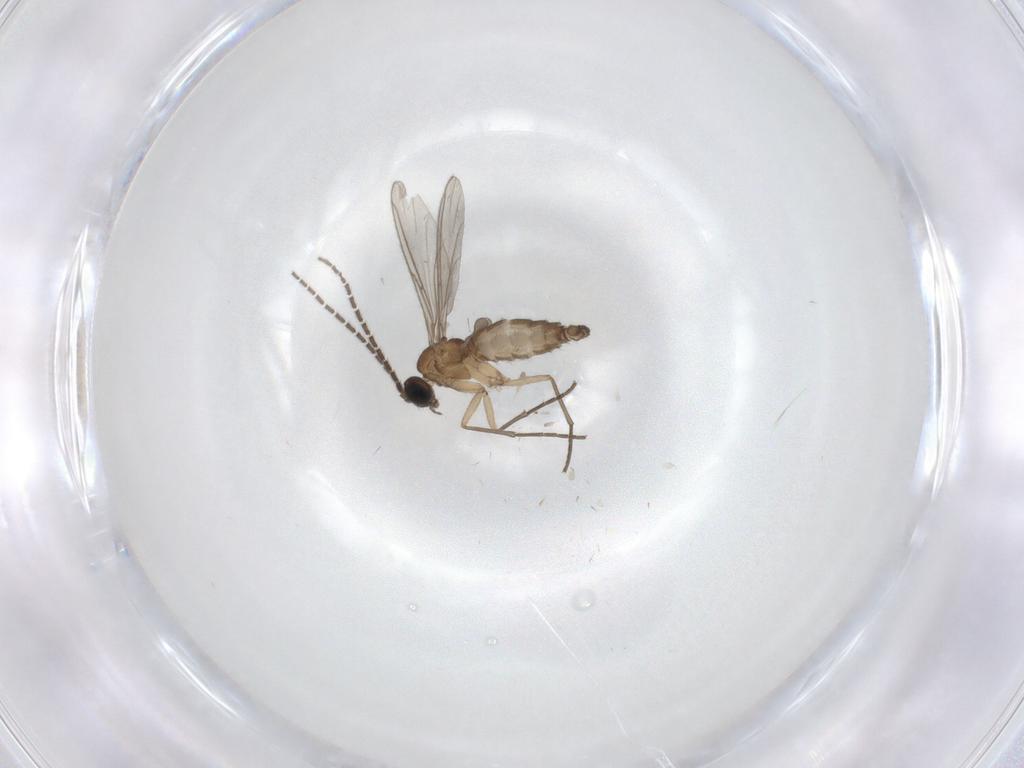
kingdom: Animalia
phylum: Arthropoda
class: Insecta
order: Diptera
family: Sciaridae
